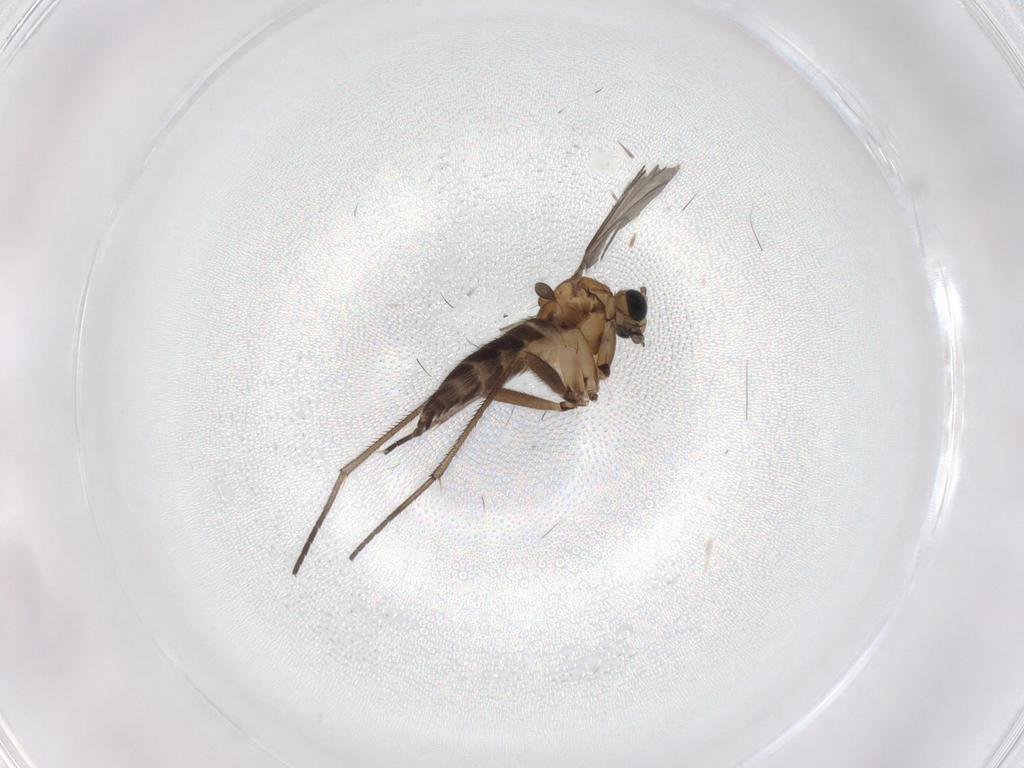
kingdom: Animalia
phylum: Arthropoda
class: Insecta
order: Diptera
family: Sciaridae
